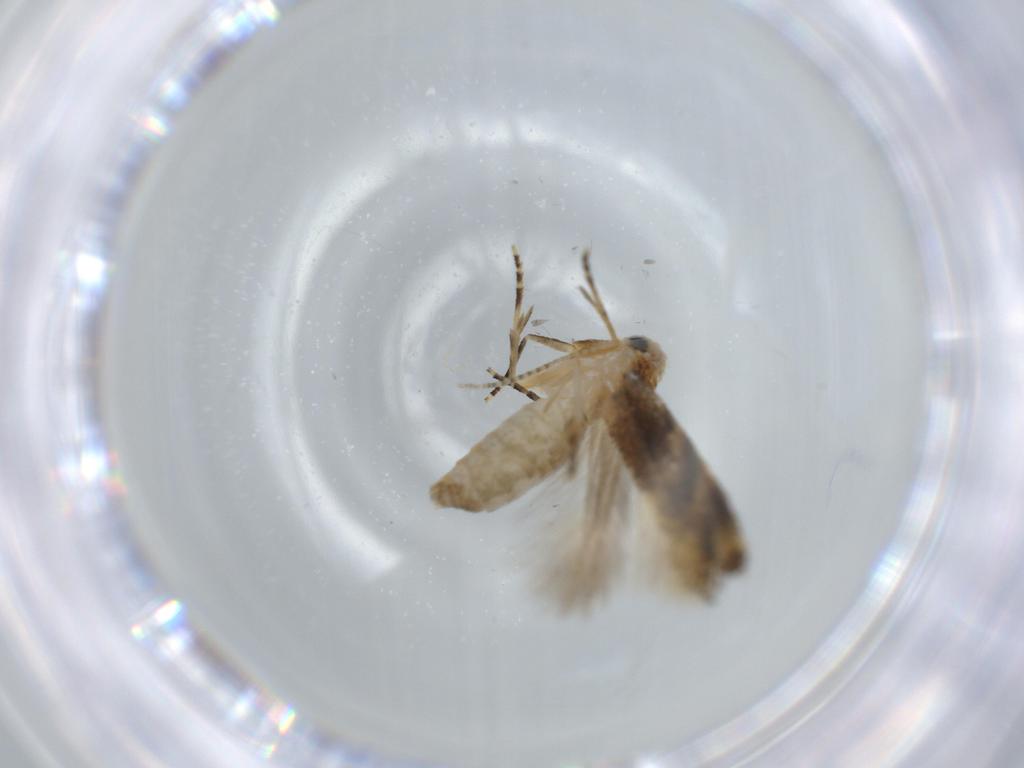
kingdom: Animalia
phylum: Arthropoda
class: Insecta
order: Lepidoptera
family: Bucculatricidae
